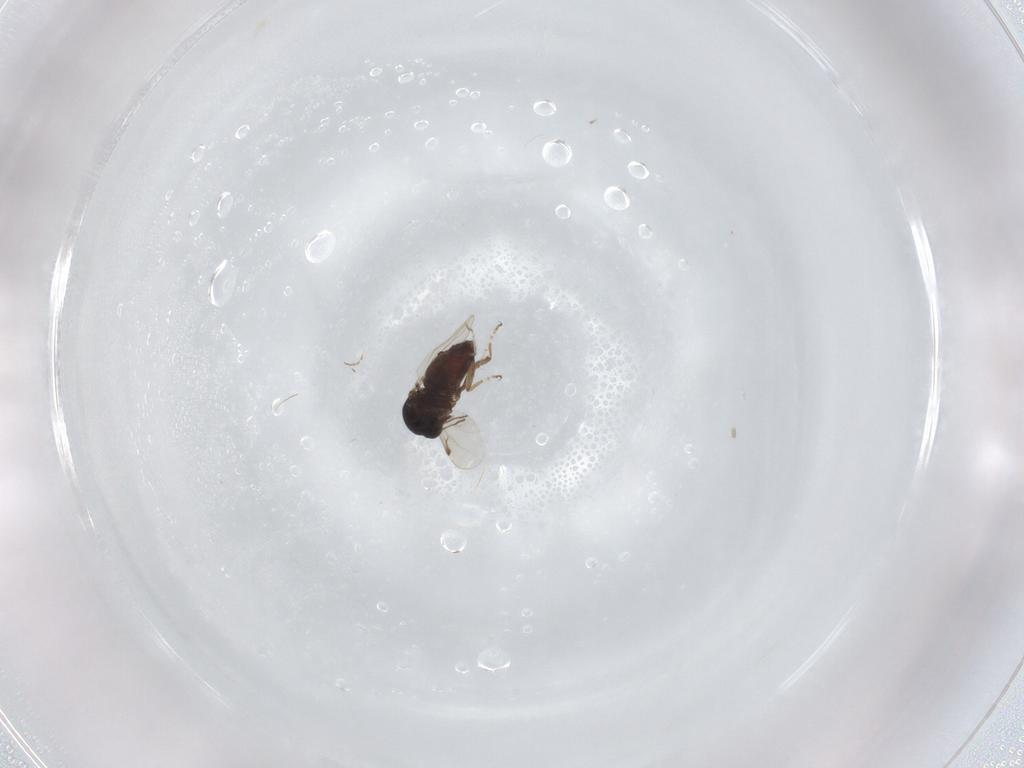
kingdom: Animalia
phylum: Arthropoda
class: Insecta
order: Diptera
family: Ceratopogonidae
